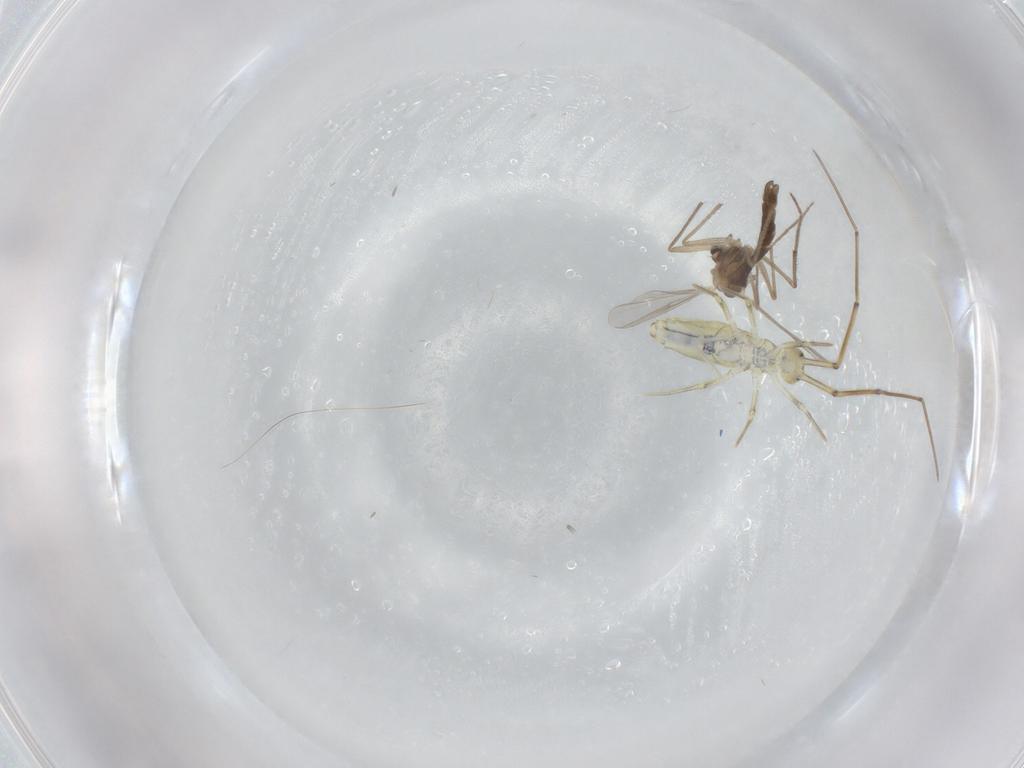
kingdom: Animalia
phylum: Arthropoda
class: Insecta
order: Diptera
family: Chironomidae
